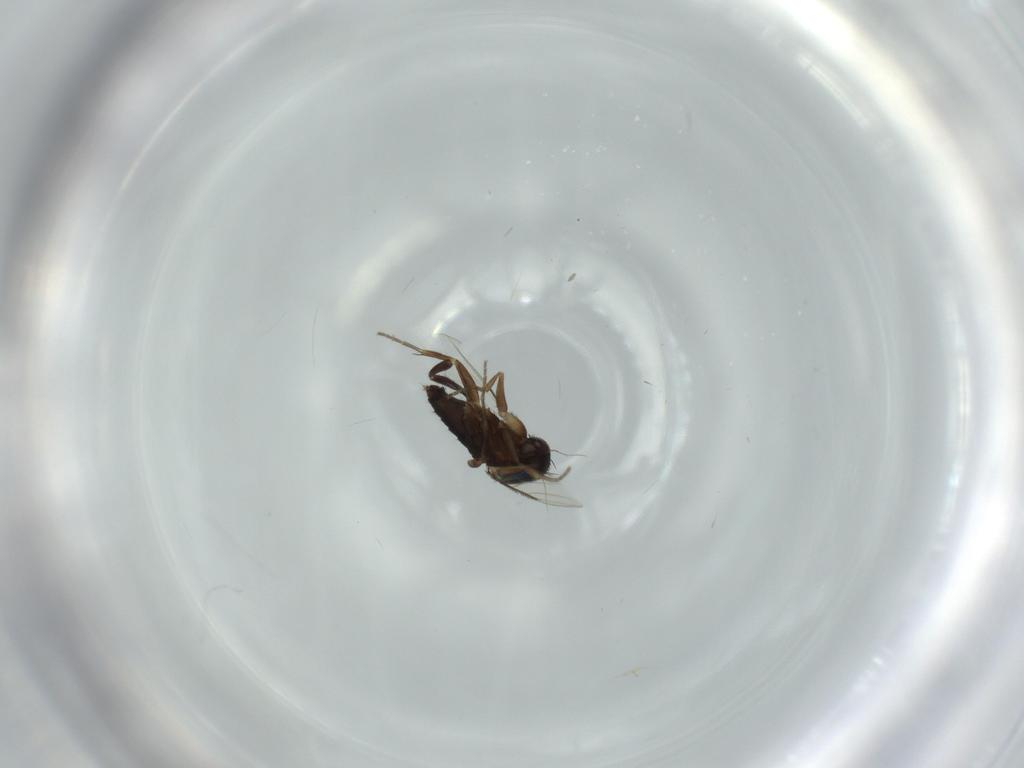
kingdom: Animalia
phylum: Arthropoda
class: Insecta
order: Diptera
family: Phoridae
